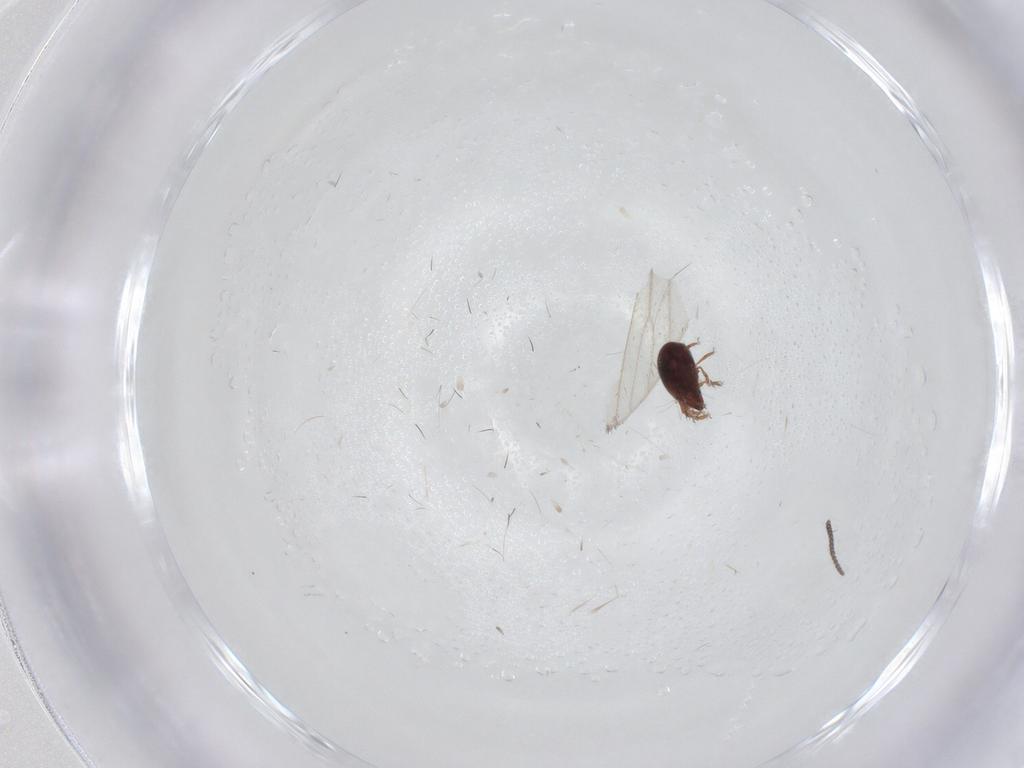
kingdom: Animalia
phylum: Arthropoda
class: Arachnida
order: Sarcoptiformes
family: Ceratozetidae
